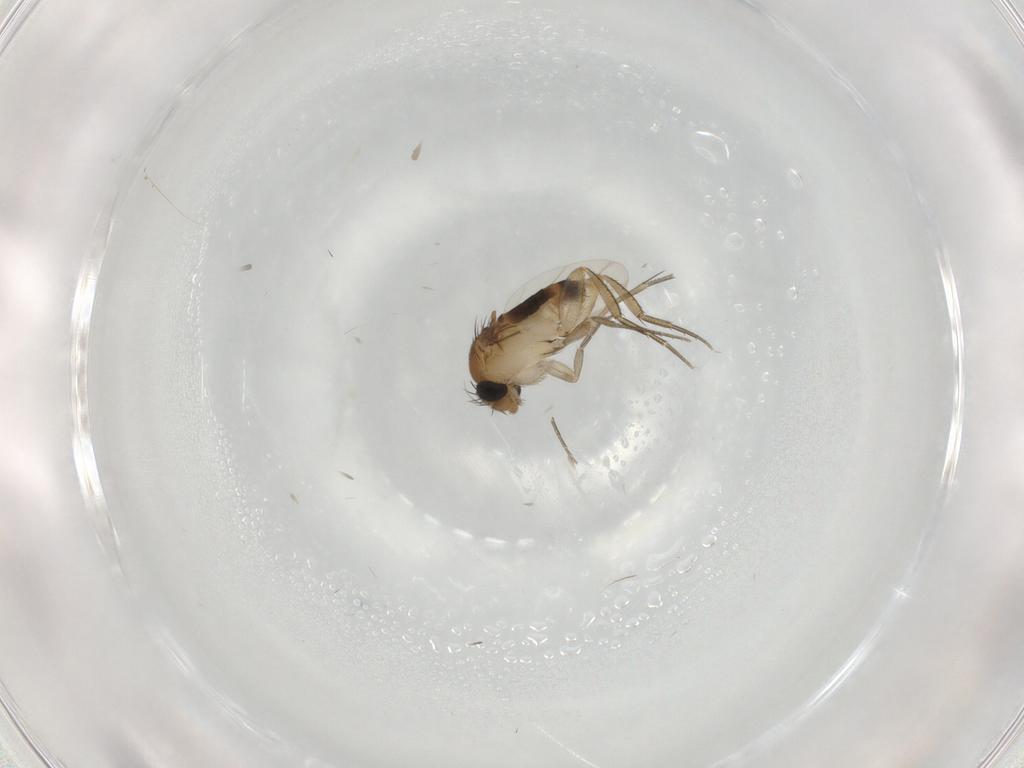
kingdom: Animalia
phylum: Arthropoda
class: Insecta
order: Diptera
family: Phoridae
